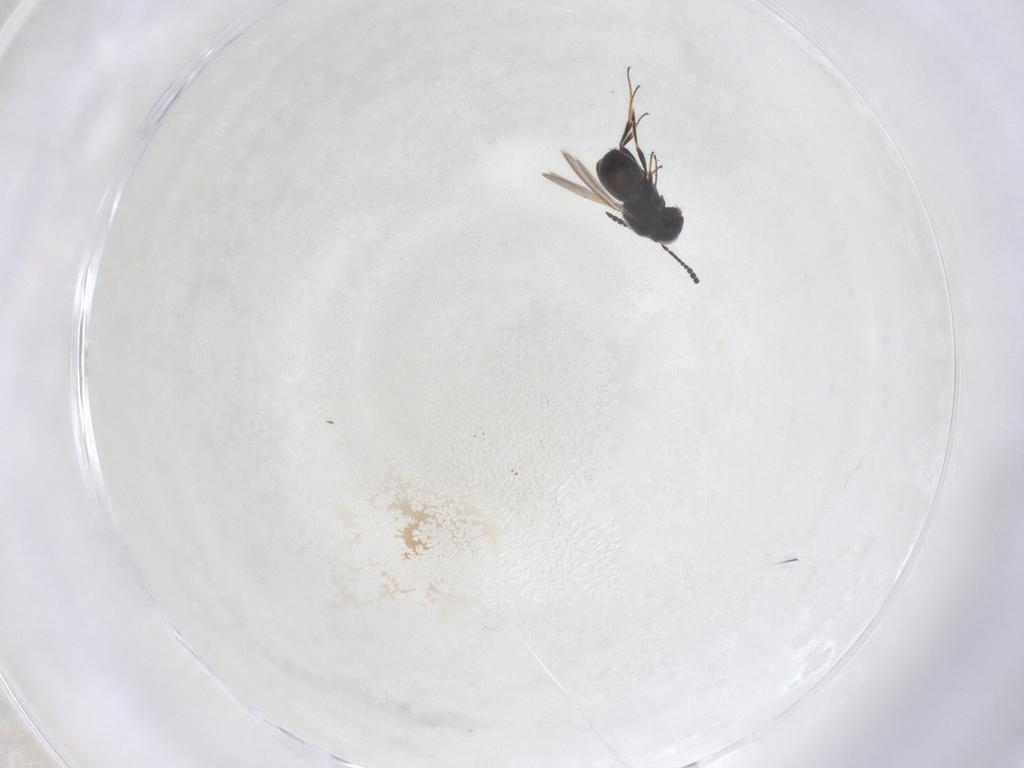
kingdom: Animalia
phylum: Arthropoda
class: Insecta
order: Hymenoptera
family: Scelionidae
